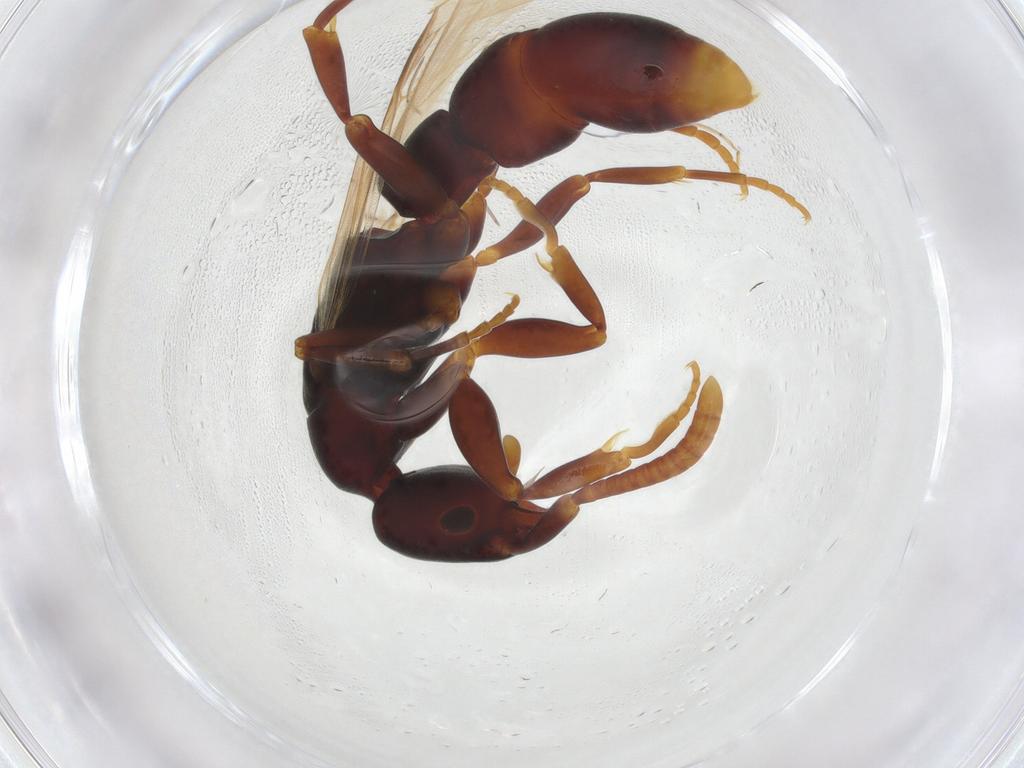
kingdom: Animalia
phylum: Arthropoda
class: Insecta
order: Hymenoptera
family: Formicidae
